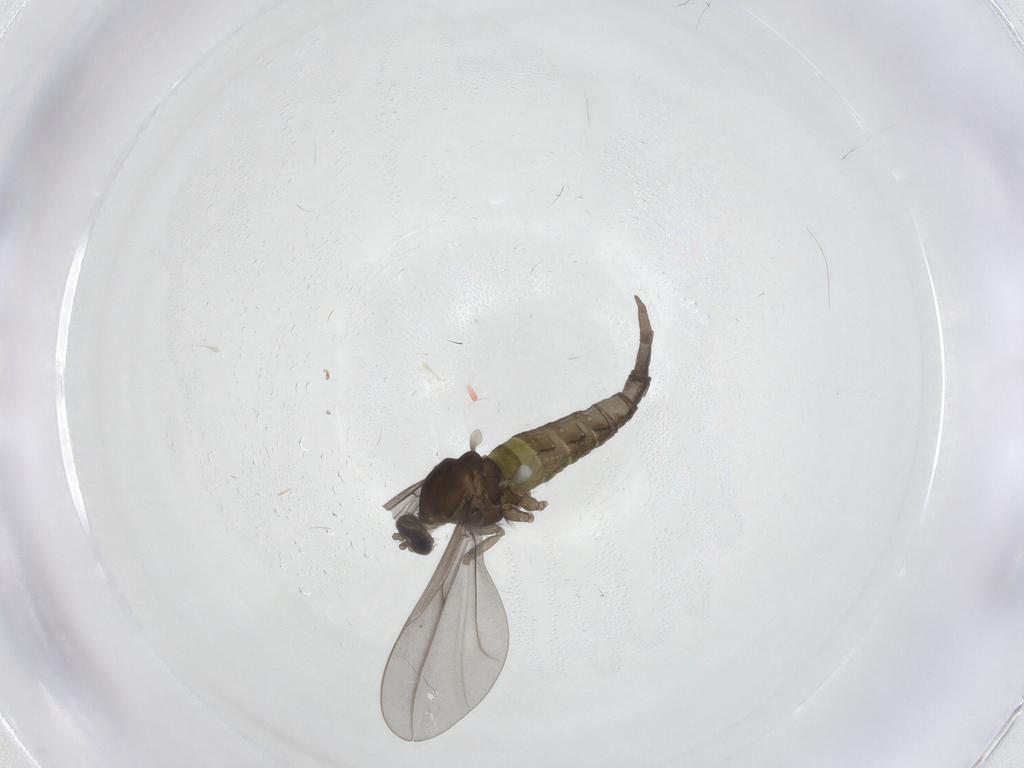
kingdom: Animalia
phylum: Arthropoda
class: Insecta
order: Diptera
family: Cecidomyiidae
